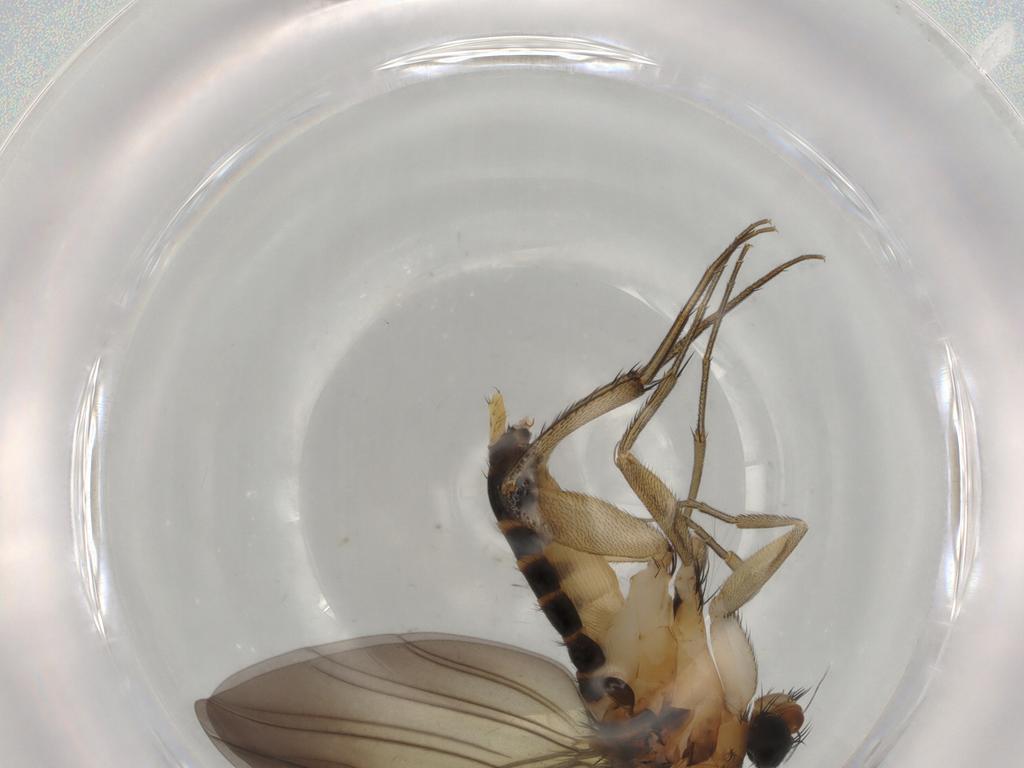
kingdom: Animalia
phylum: Arthropoda
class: Insecta
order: Diptera
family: Sciaridae
